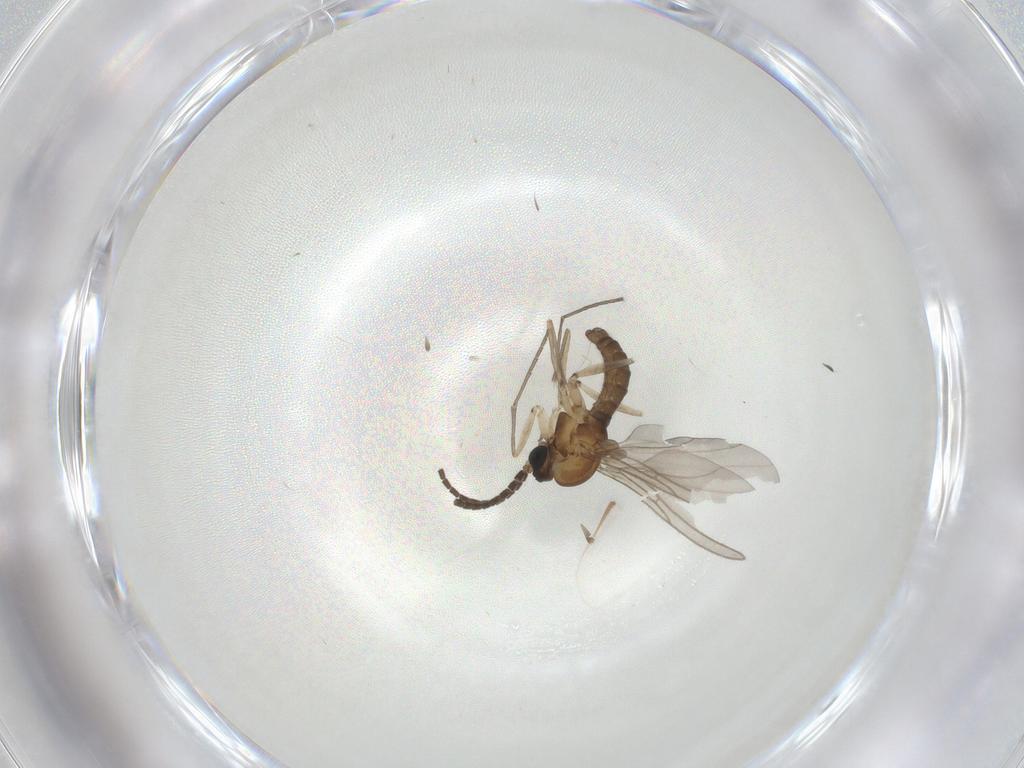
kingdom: Animalia
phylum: Arthropoda
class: Insecta
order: Diptera
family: Sciaridae
